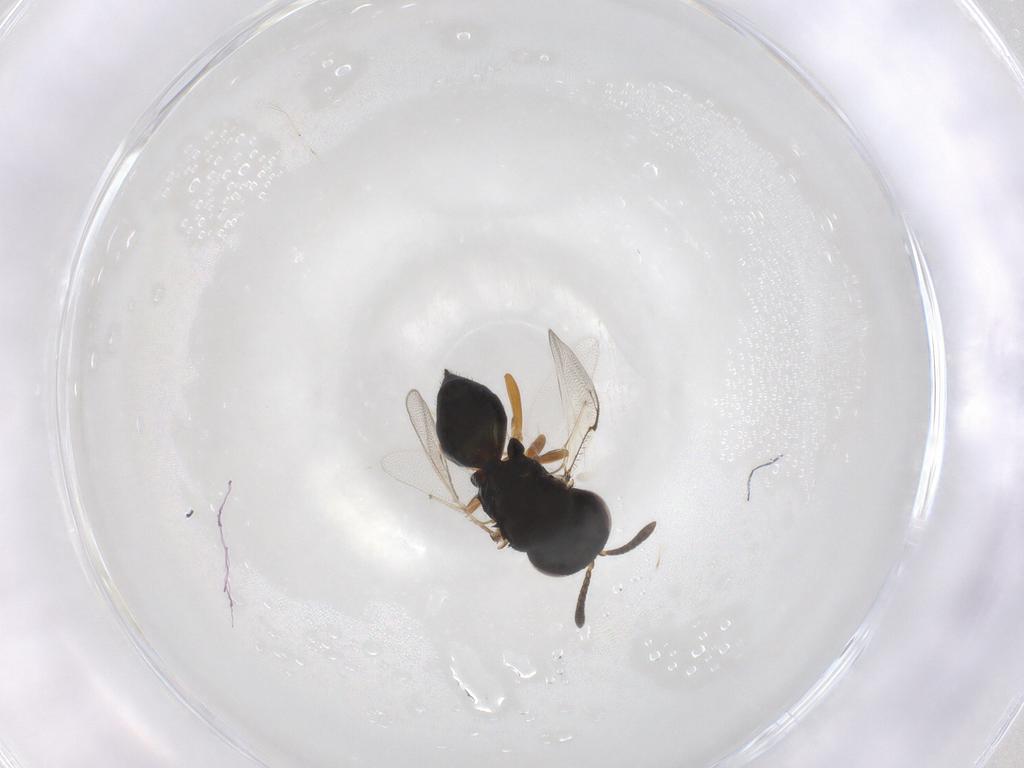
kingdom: Animalia
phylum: Arthropoda
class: Insecta
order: Hymenoptera
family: Pteromalidae
